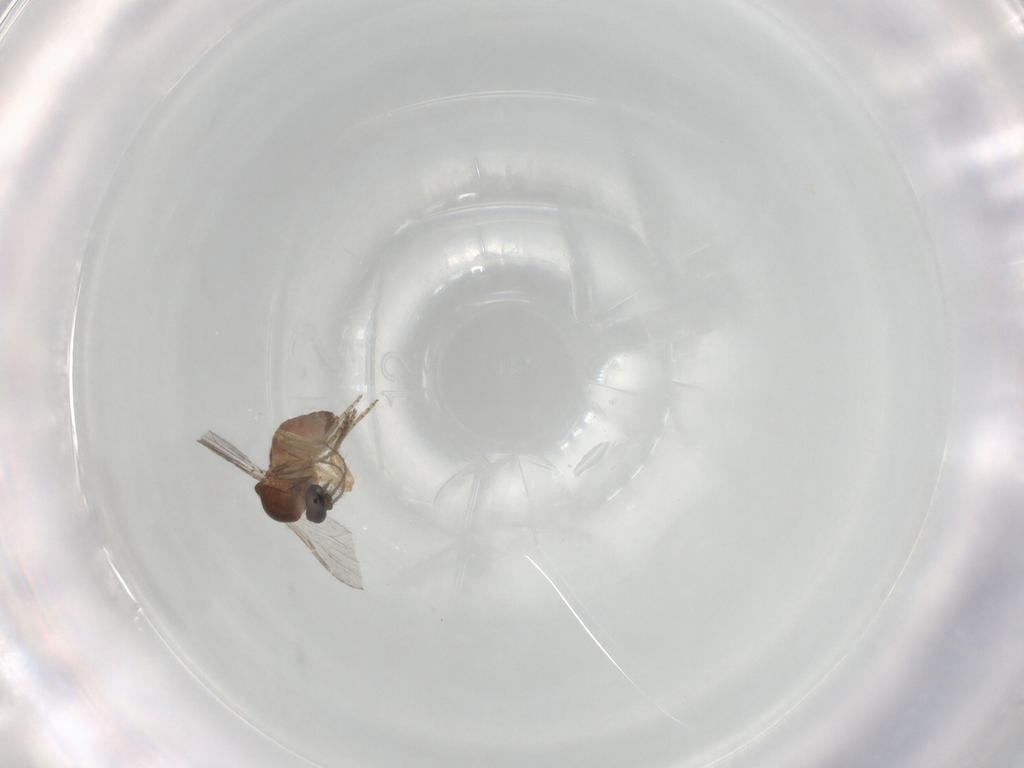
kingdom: Animalia
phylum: Arthropoda
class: Insecta
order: Diptera
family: Ceratopogonidae
